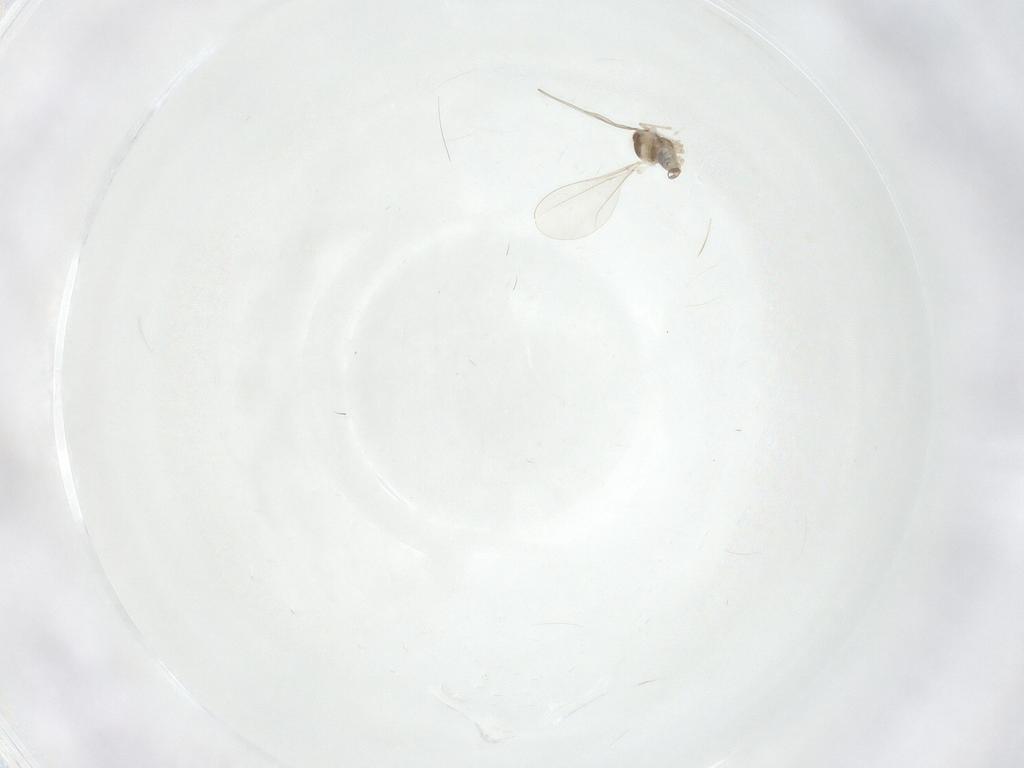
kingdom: Animalia
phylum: Arthropoda
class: Insecta
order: Diptera
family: Cecidomyiidae
